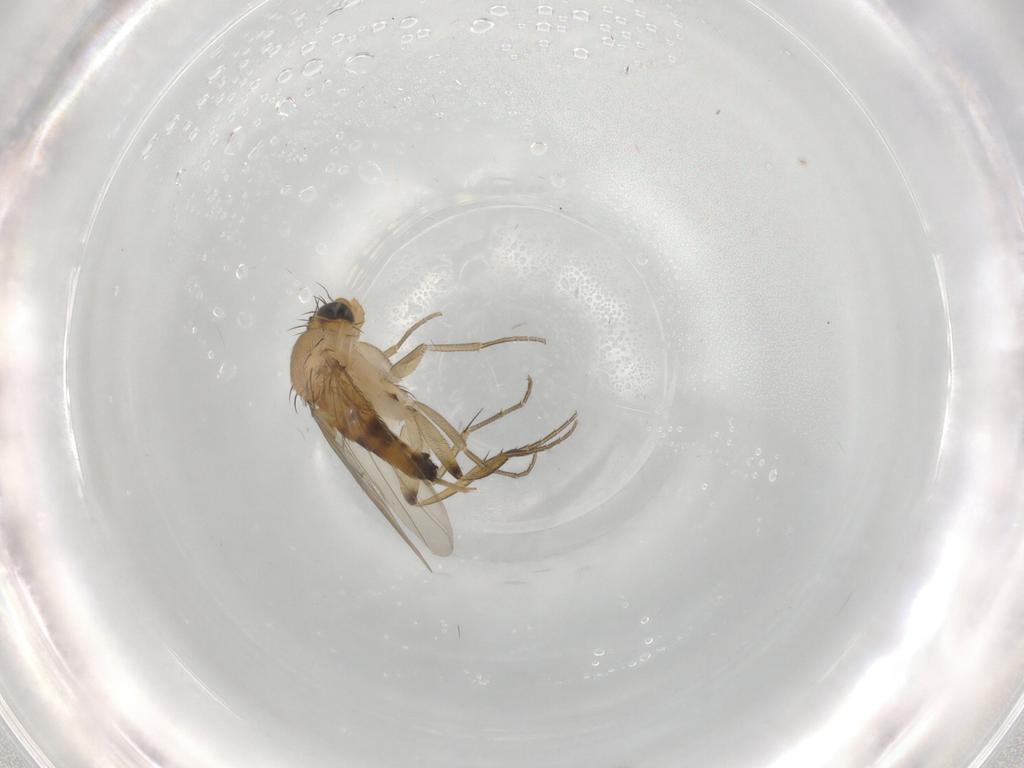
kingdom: Animalia
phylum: Arthropoda
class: Insecta
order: Diptera
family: Phoridae
